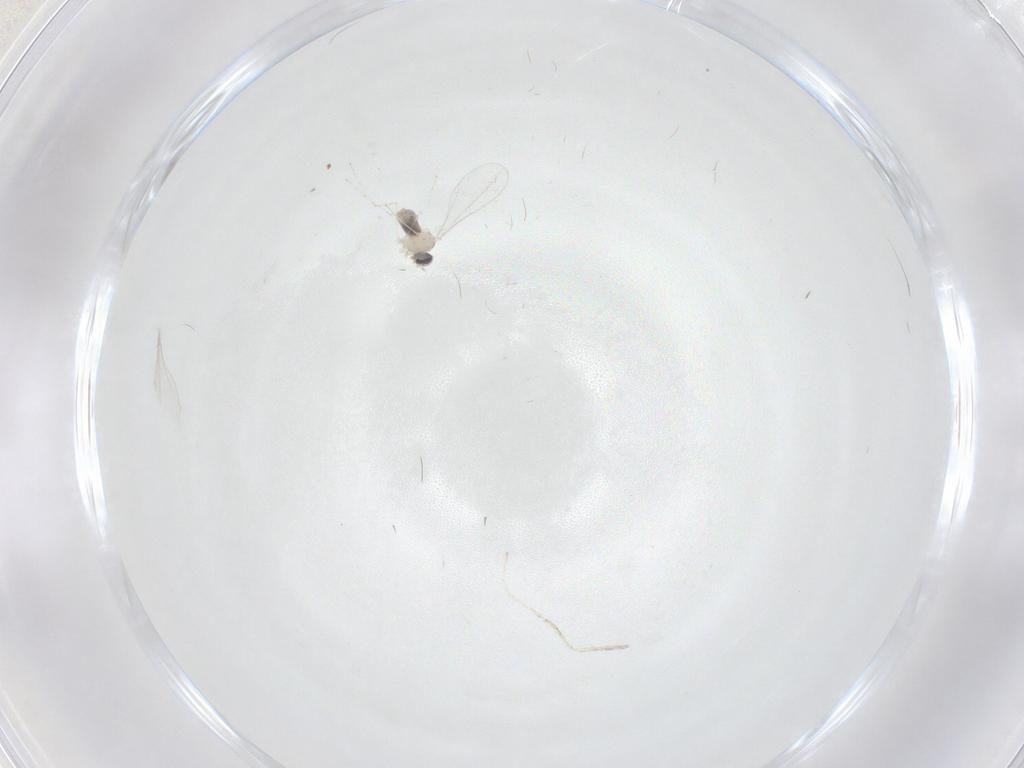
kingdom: Animalia
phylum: Arthropoda
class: Insecta
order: Diptera
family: Cecidomyiidae
